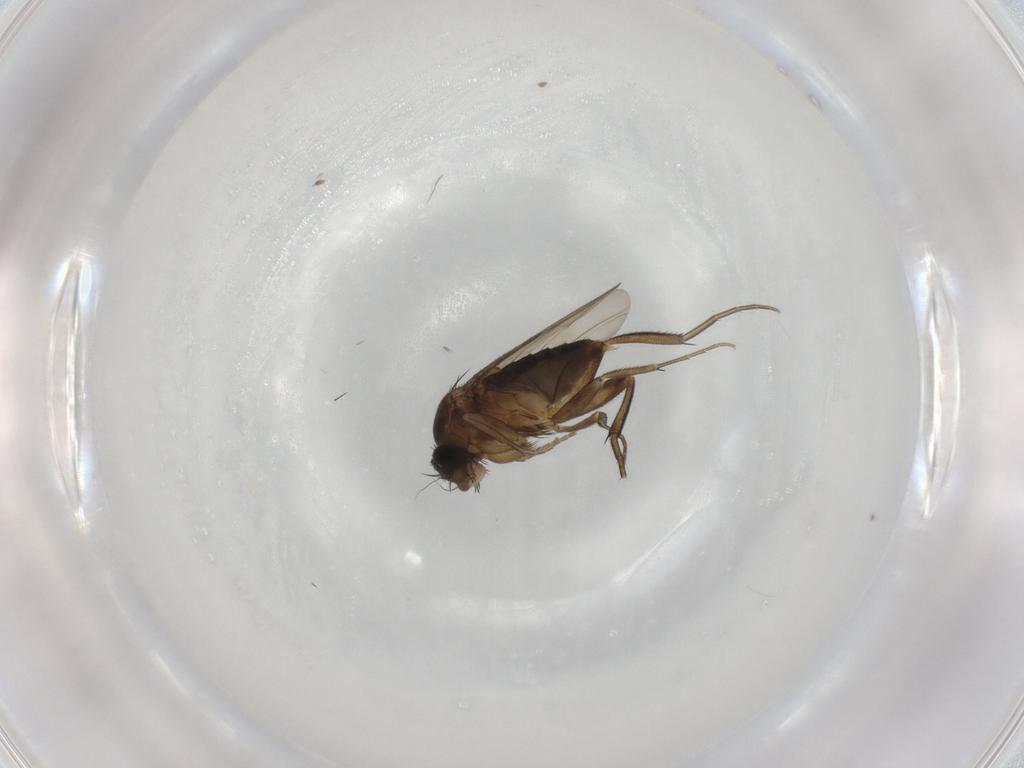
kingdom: Animalia
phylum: Arthropoda
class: Insecta
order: Diptera
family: Phoridae
